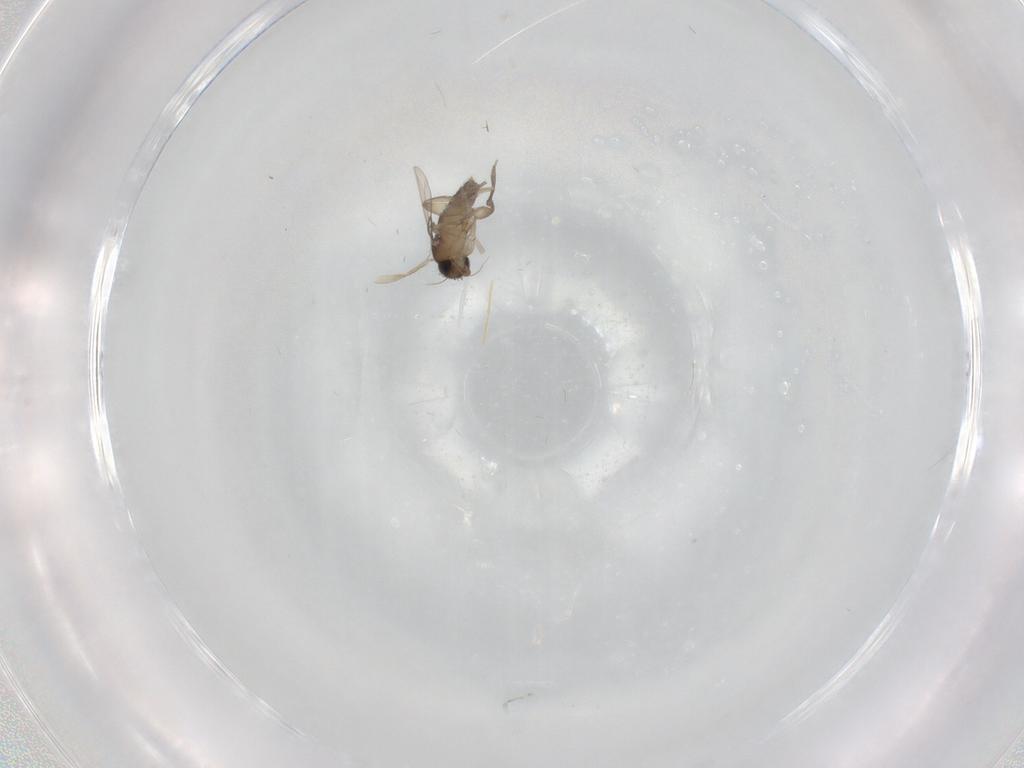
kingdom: Animalia
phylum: Arthropoda
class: Insecta
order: Diptera
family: Phoridae
